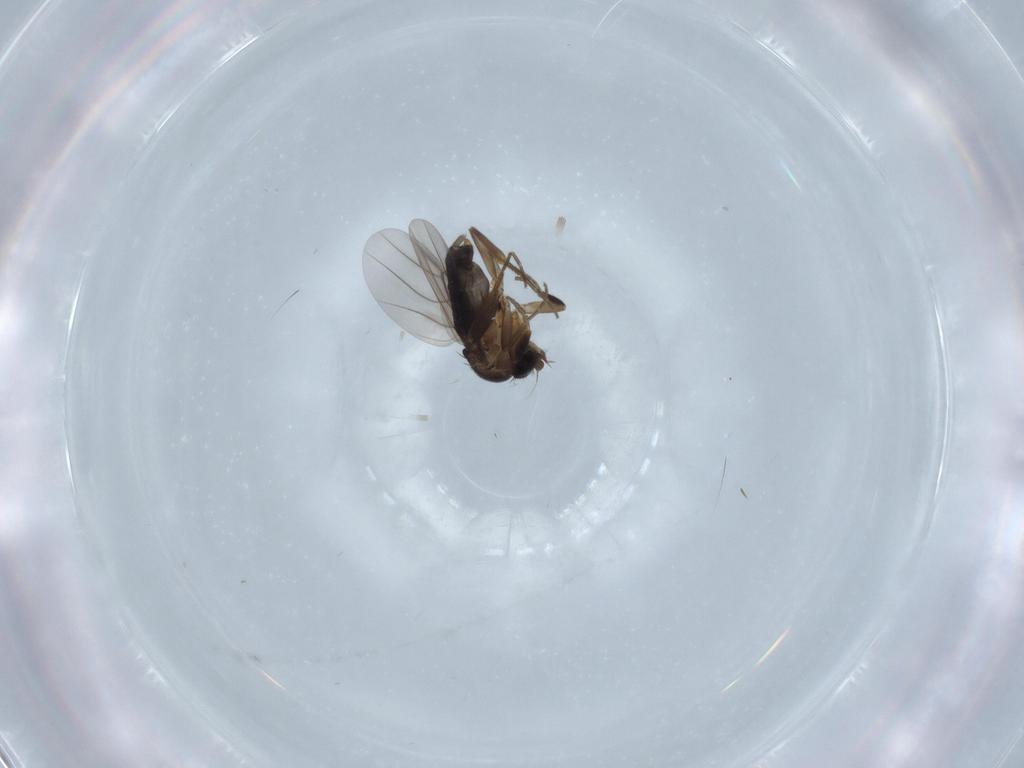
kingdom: Animalia
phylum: Arthropoda
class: Insecta
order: Diptera
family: Phoridae
